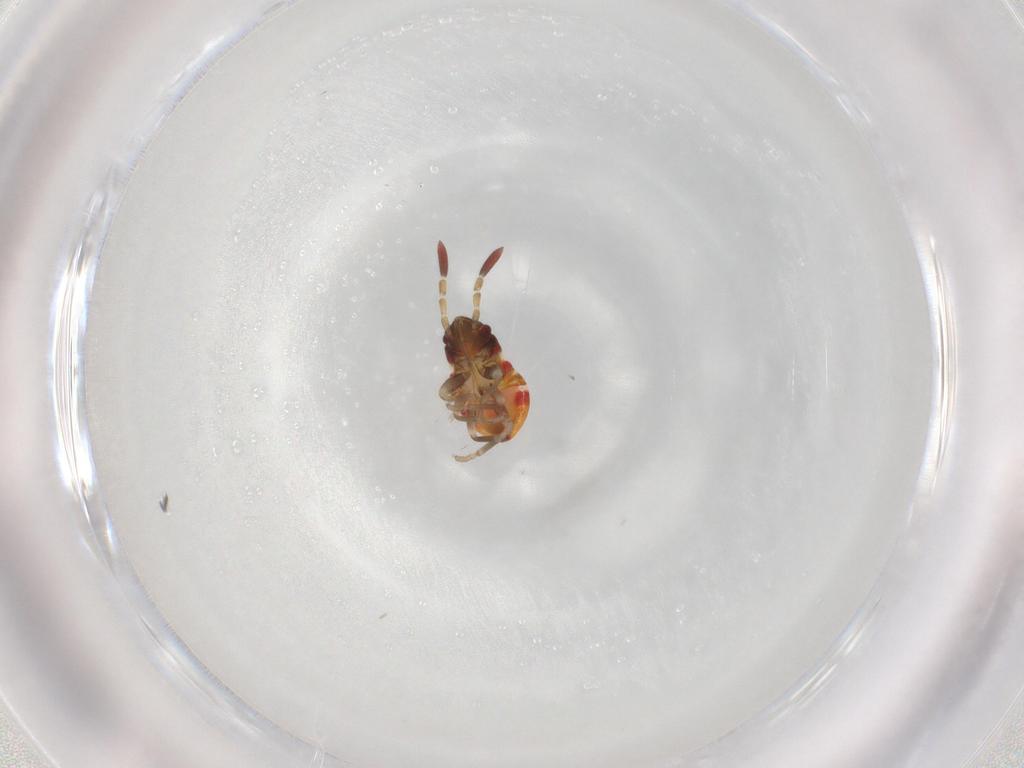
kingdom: Animalia
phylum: Arthropoda
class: Insecta
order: Hemiptera
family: Rhyparochromidae
